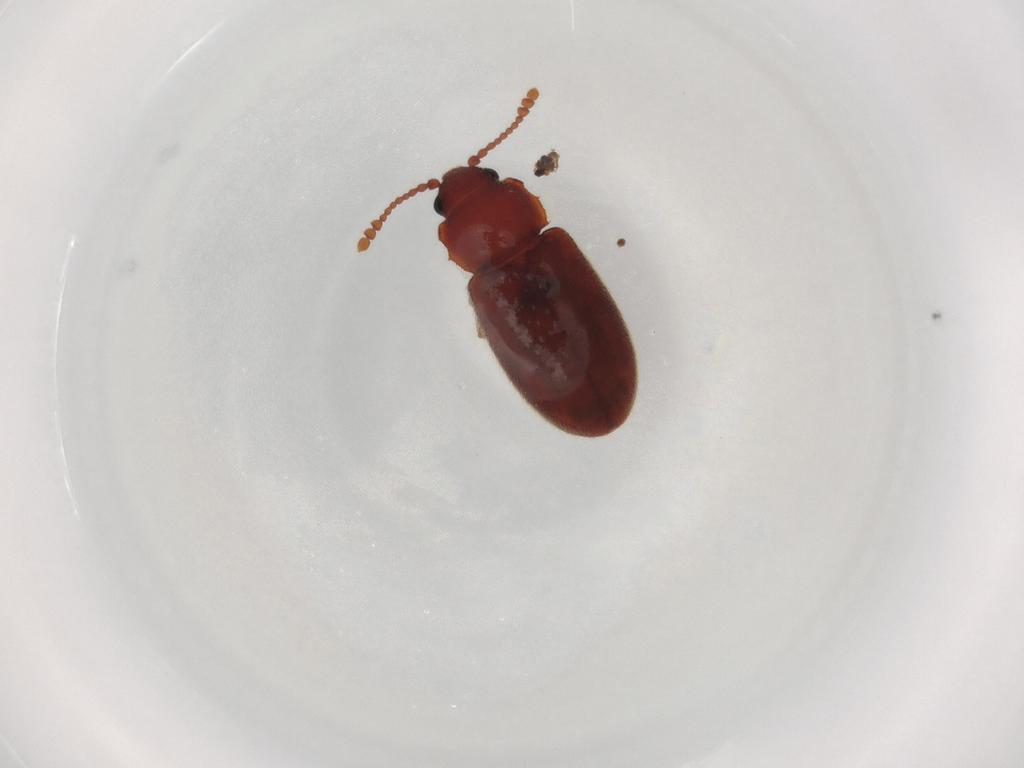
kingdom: Animalia
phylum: Arthropoda
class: Insecta
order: Coleoptera
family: Cryptophagidae
